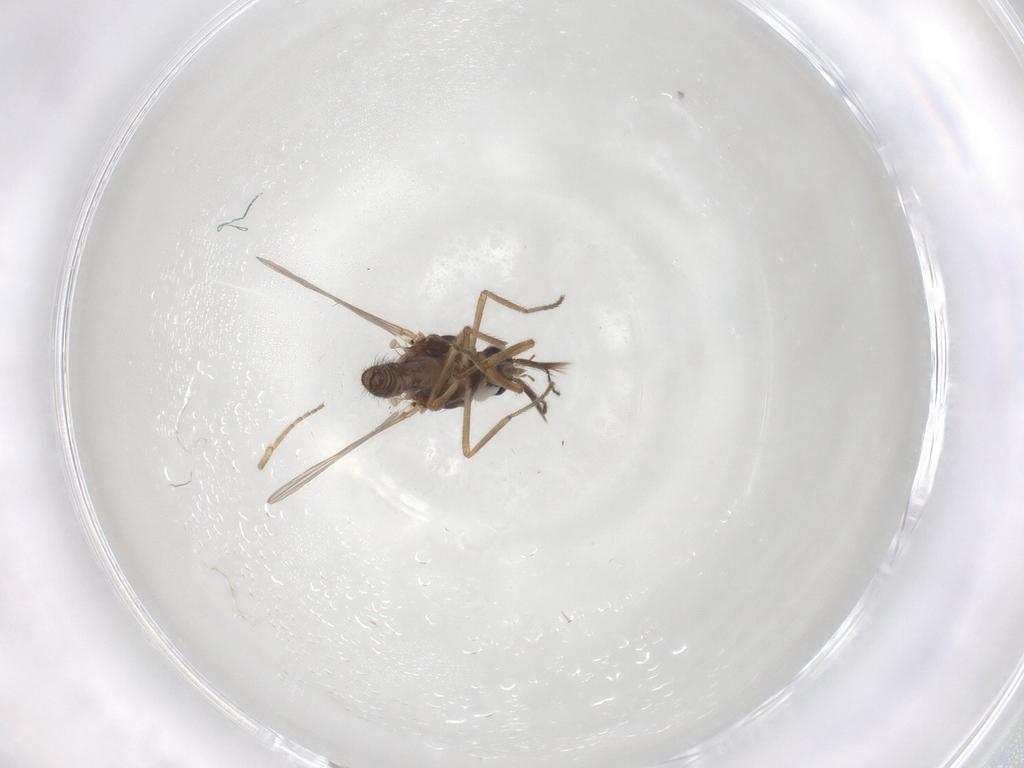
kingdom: Animalia
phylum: Arthropoda
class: Insecta
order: Diptera
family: Ceratopogonidae
